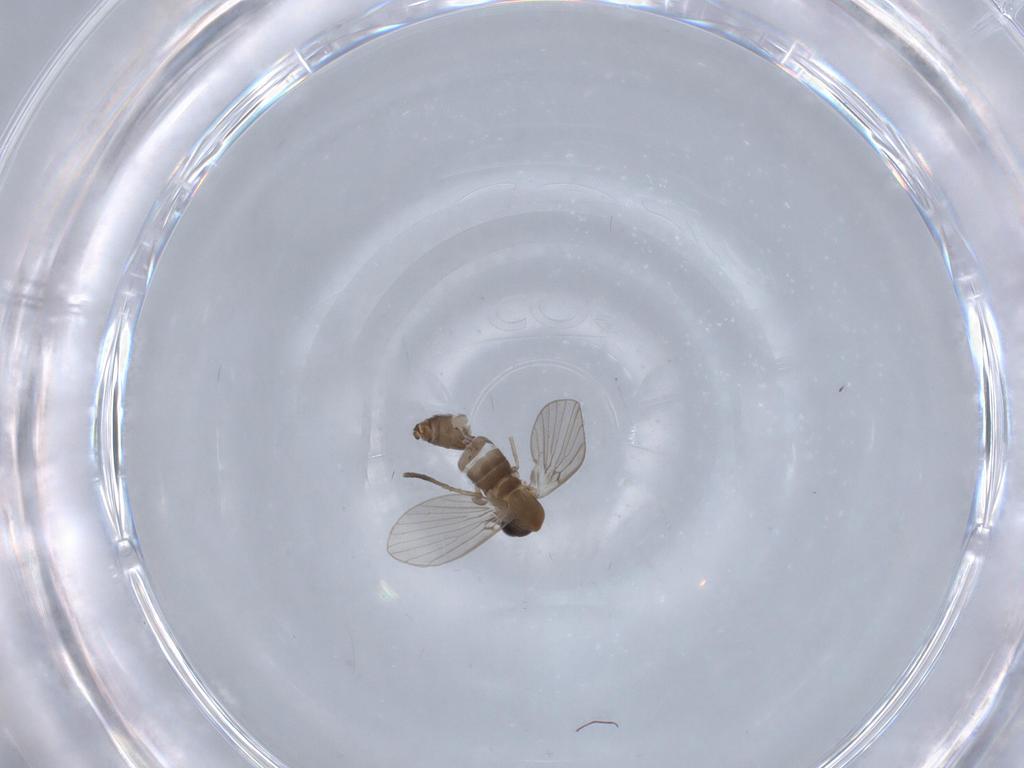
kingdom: Animalia
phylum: Arthropoda
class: Insecta
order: Diptera
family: Psychodidae
